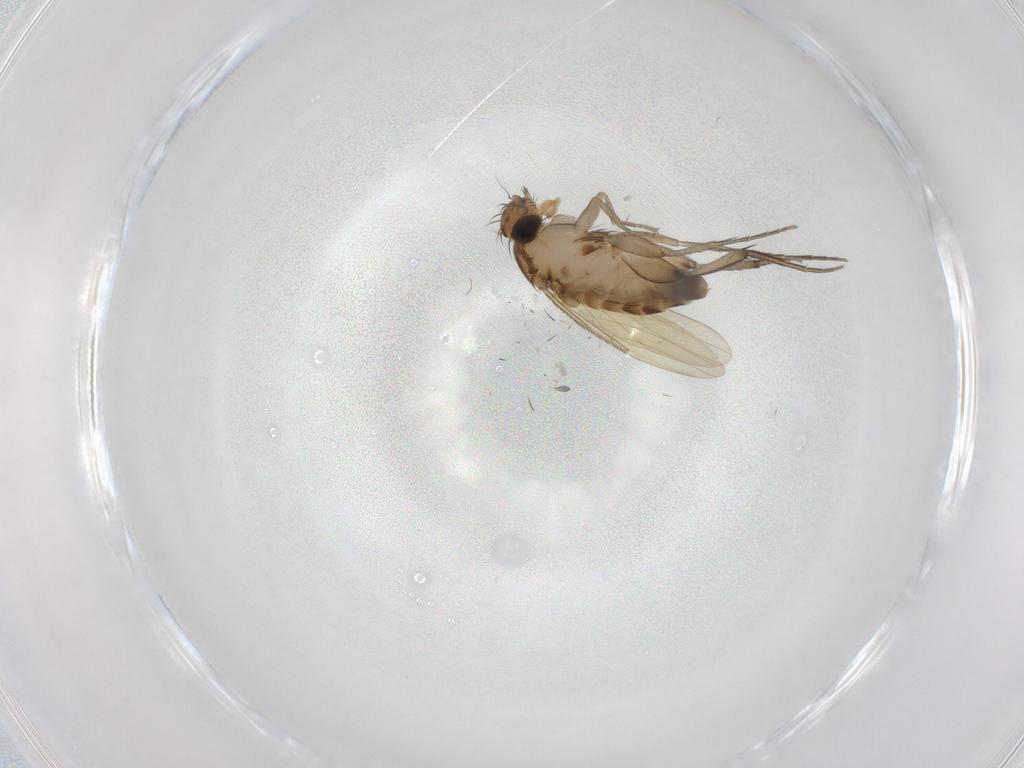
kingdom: Animalia
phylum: Arthropoda
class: Insecta
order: Diptera
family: Phoridae
